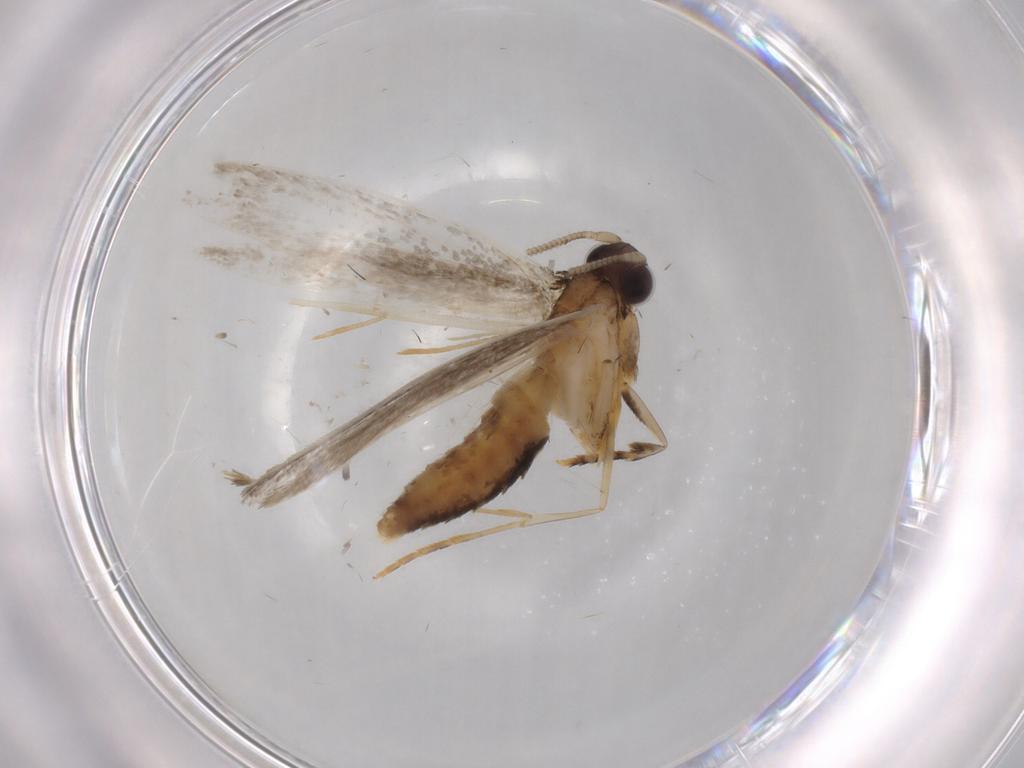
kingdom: Animalia
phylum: Arthropoda
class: Insecta
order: Lepidoptera
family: Tineidae
